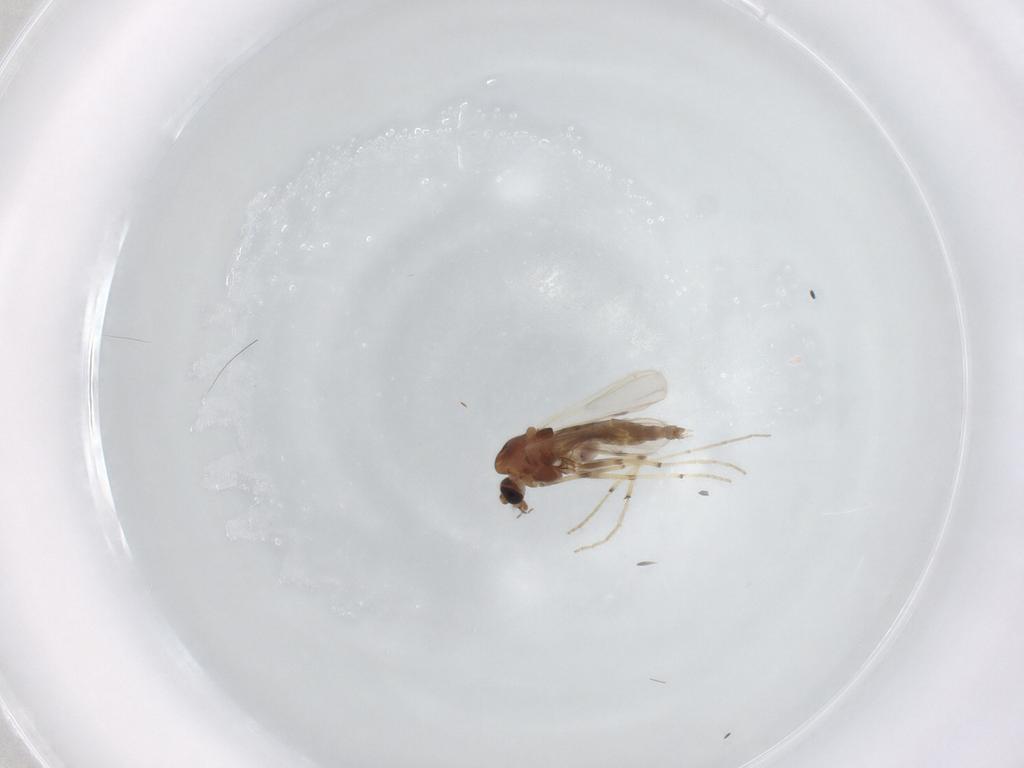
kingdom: Animalia
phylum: Arthropoda
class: Insecta
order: Diptera
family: Chironomidae
